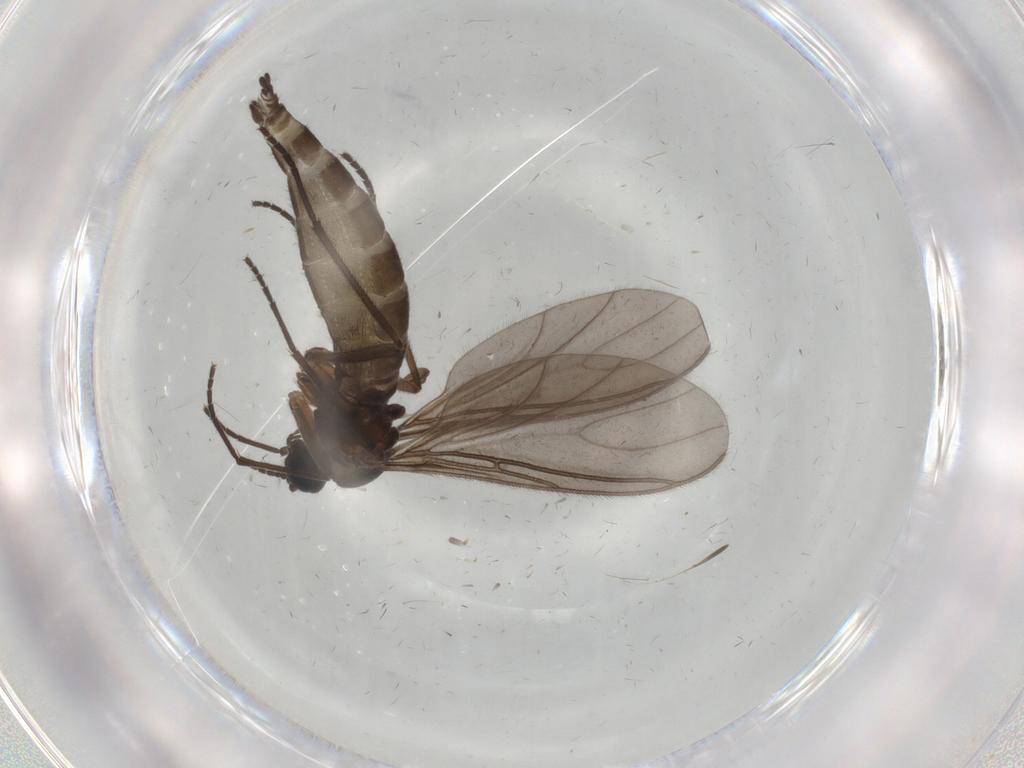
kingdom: Animalia
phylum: Arthropoda
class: Insecta
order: Diptera
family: Sciaridae
